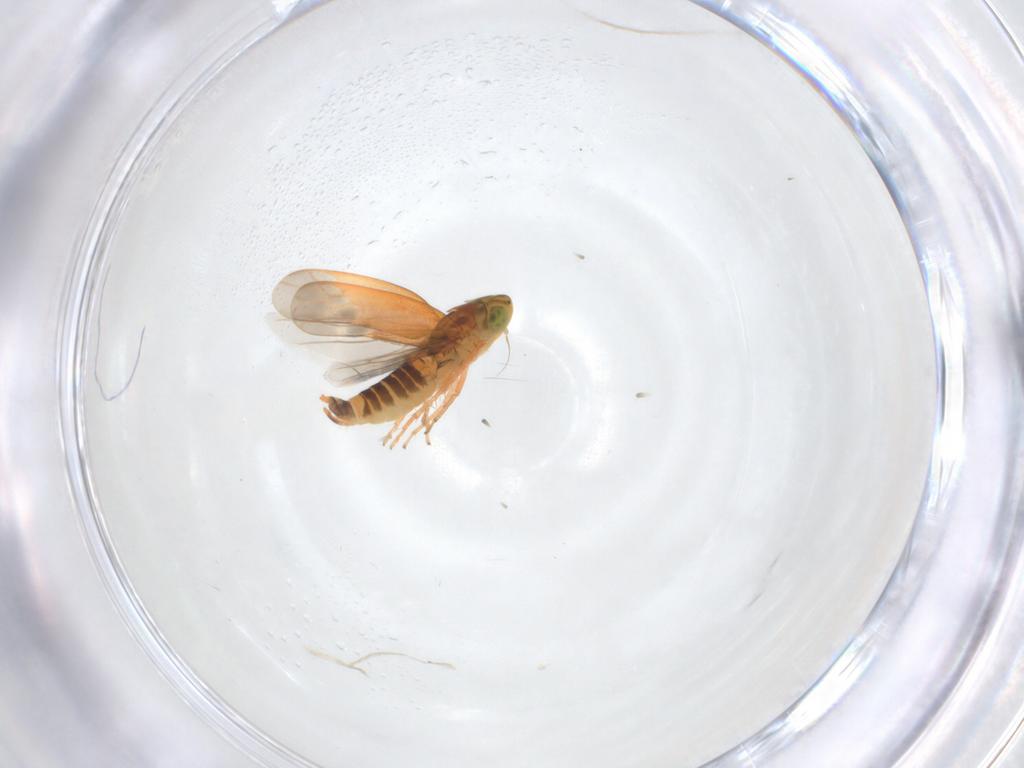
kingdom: Animalia
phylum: Arthropoda
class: Insecta
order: Hemiptera
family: Cicadellidae
